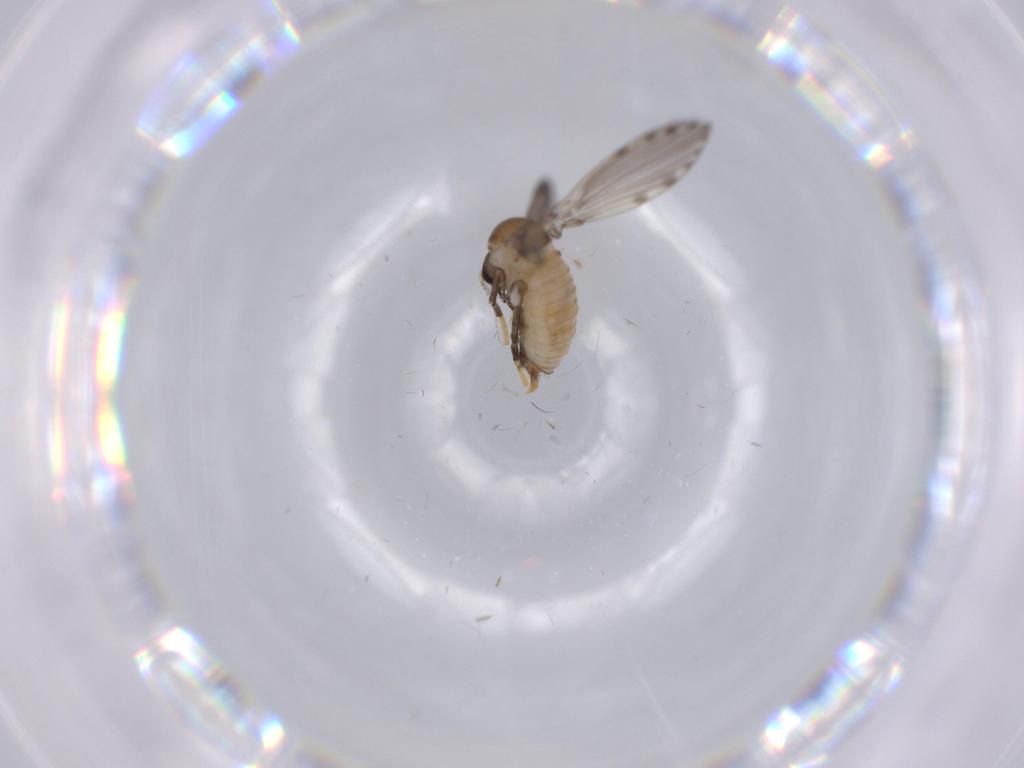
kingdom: Animalia
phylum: Arthropoda
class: Insecta
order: Diptera
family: Psychodidae
